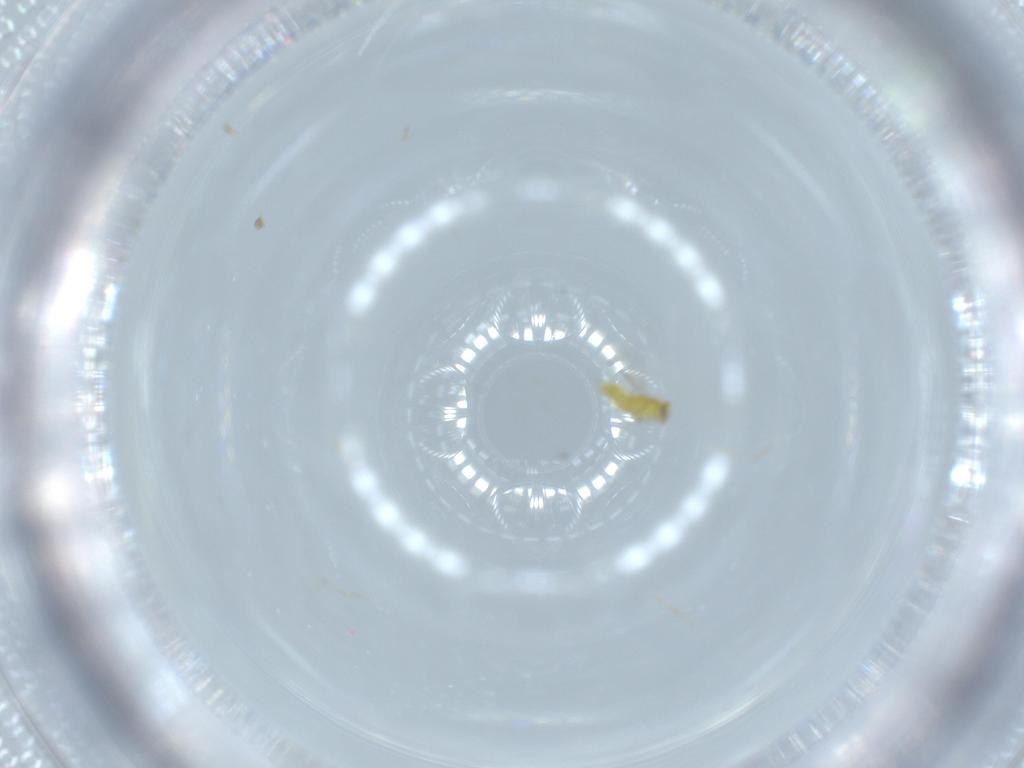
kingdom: Animalia
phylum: Arthropoda
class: Insecta
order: Hymenoptera
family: Aphelinidae
